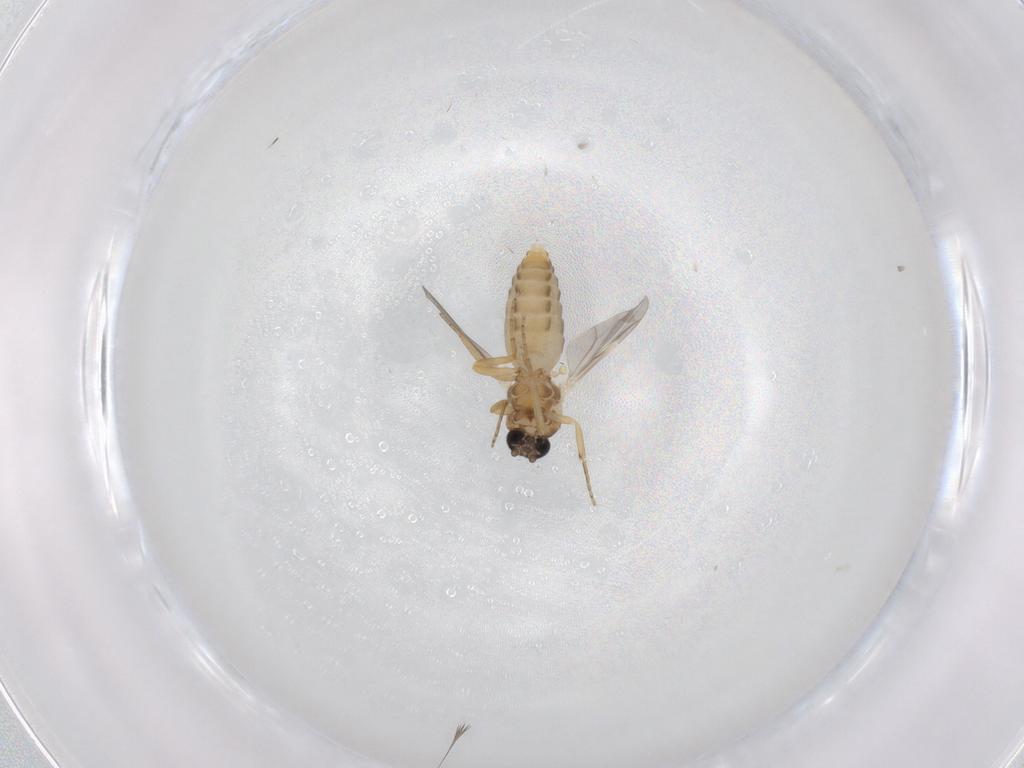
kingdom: Animalia
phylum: Arthropoda
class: Insecta
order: Diptera
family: Ceratopogonidae
